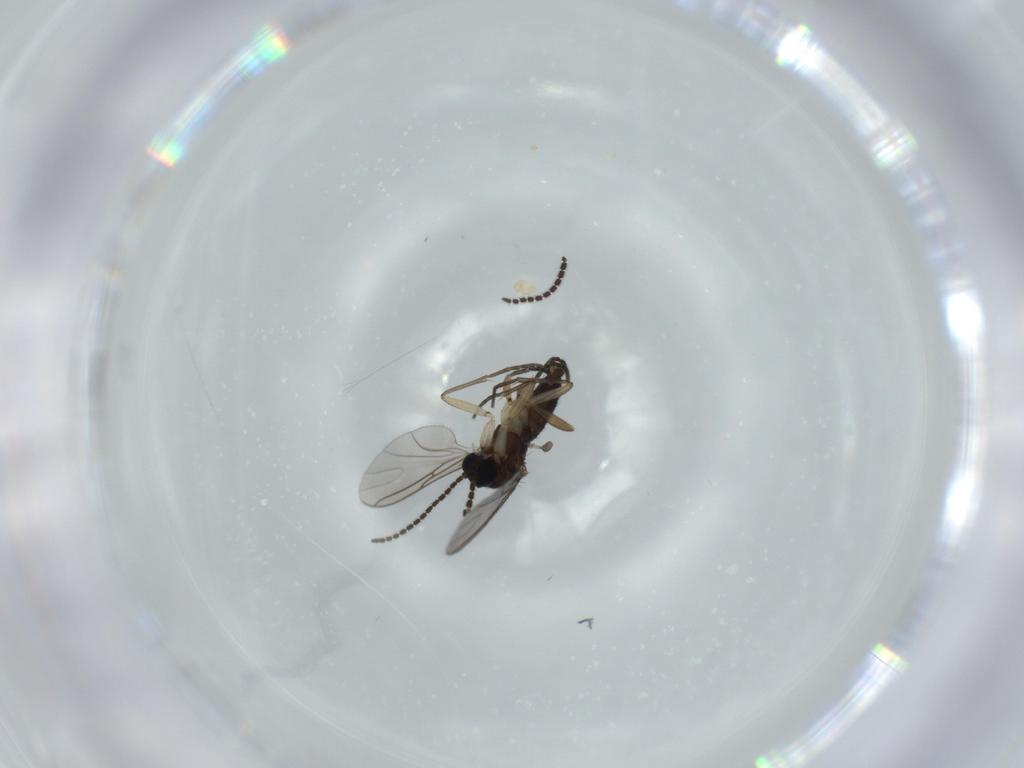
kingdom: Animalia
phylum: Arthropoda
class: Insecta
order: Diptera
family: Sciaridae
